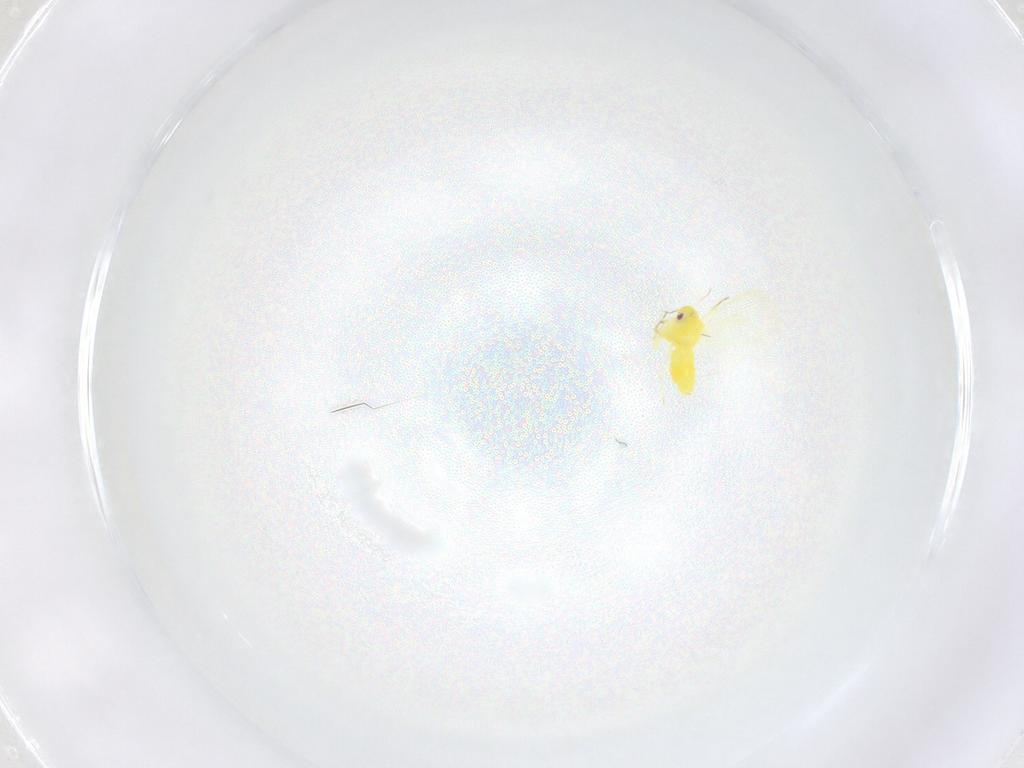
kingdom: Animalia
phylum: Arthropoda
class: Insecta
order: Hemiptera
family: Aleyrodidae
